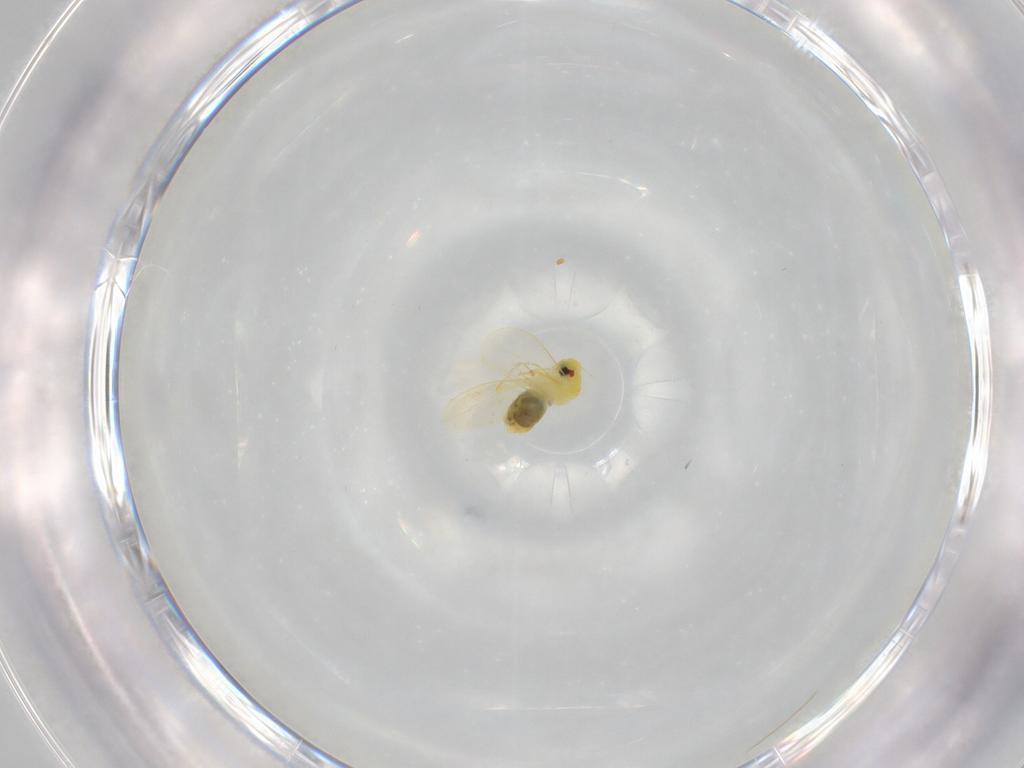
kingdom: Animalia
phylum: Arthropoda
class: Insecta
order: Hemiptera
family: Aleyrodidae
